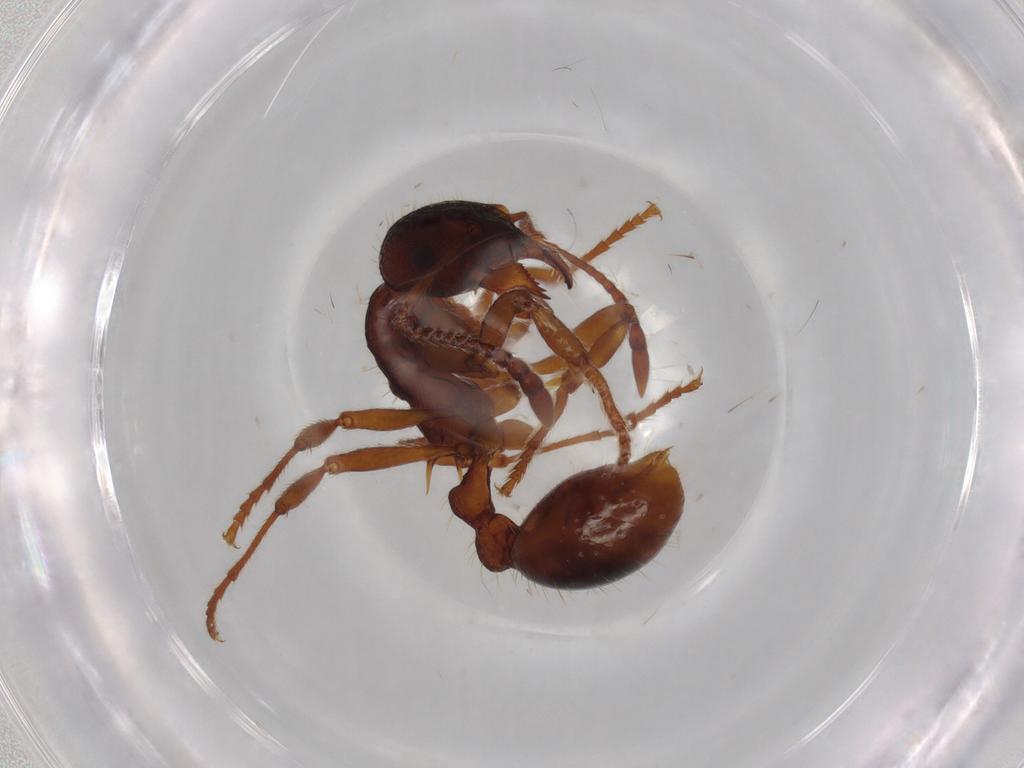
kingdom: Animalia
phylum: Arthropoda
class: Insecta
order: Hymenoptera
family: Formicidae
